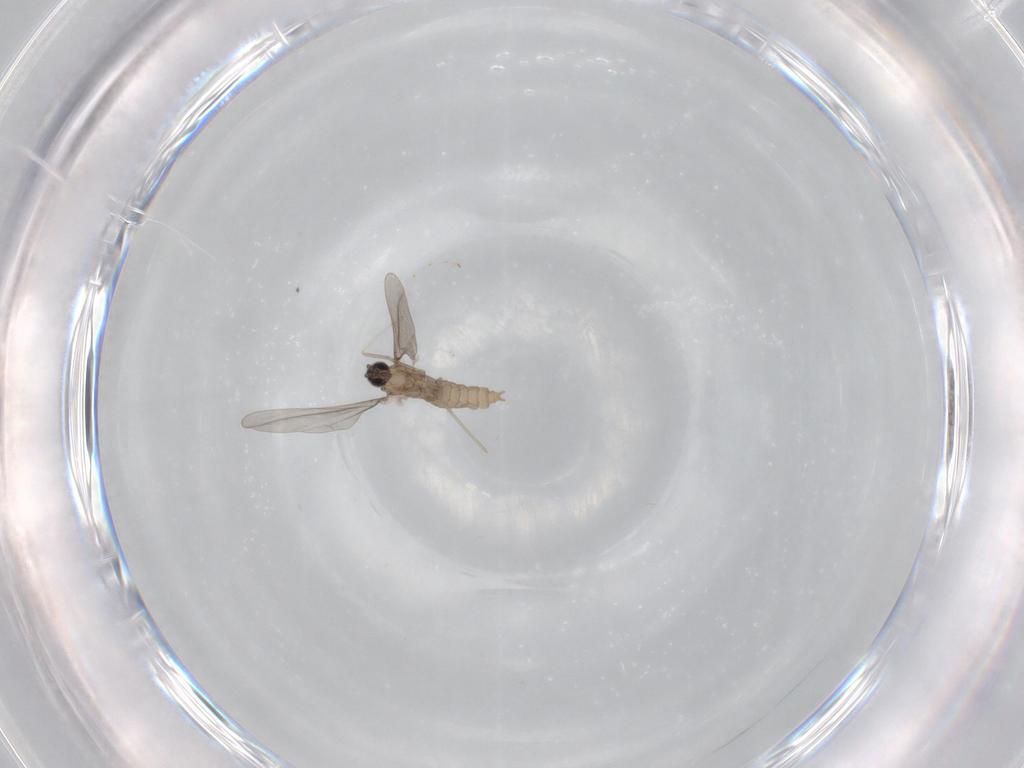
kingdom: Animalia
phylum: Arthropoda
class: Insecta
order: Diptera
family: Cecidomyiidae
